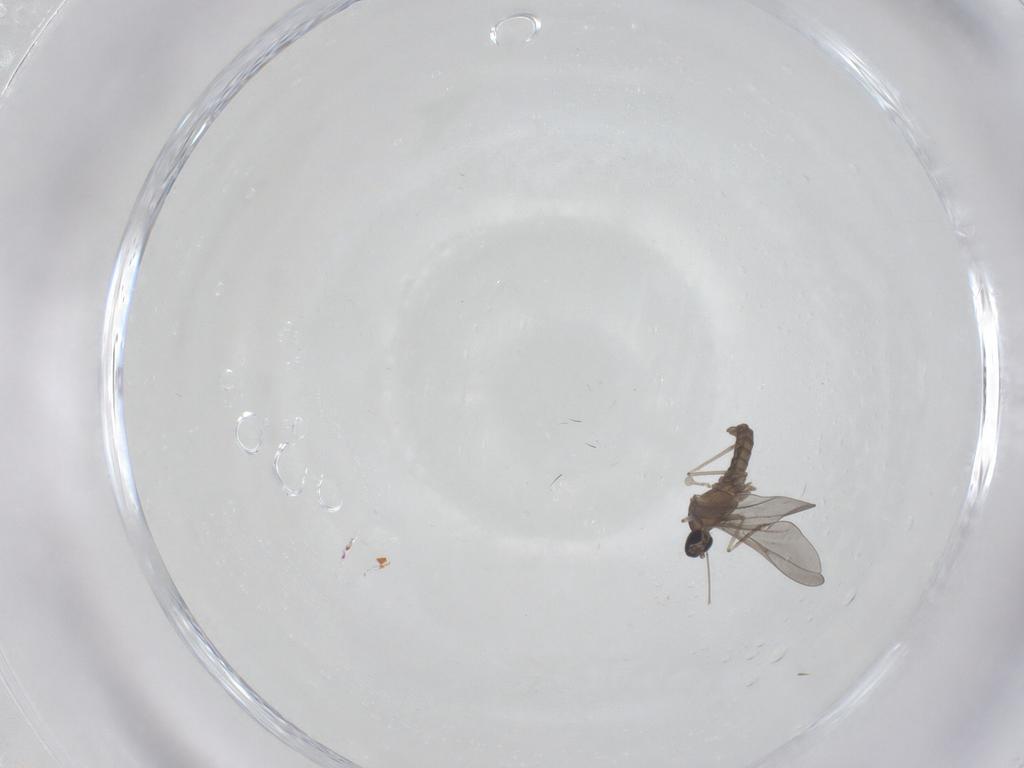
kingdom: Animalia
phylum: Arthropoda
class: Insecta
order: Diptera
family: Cecidomyiidae
